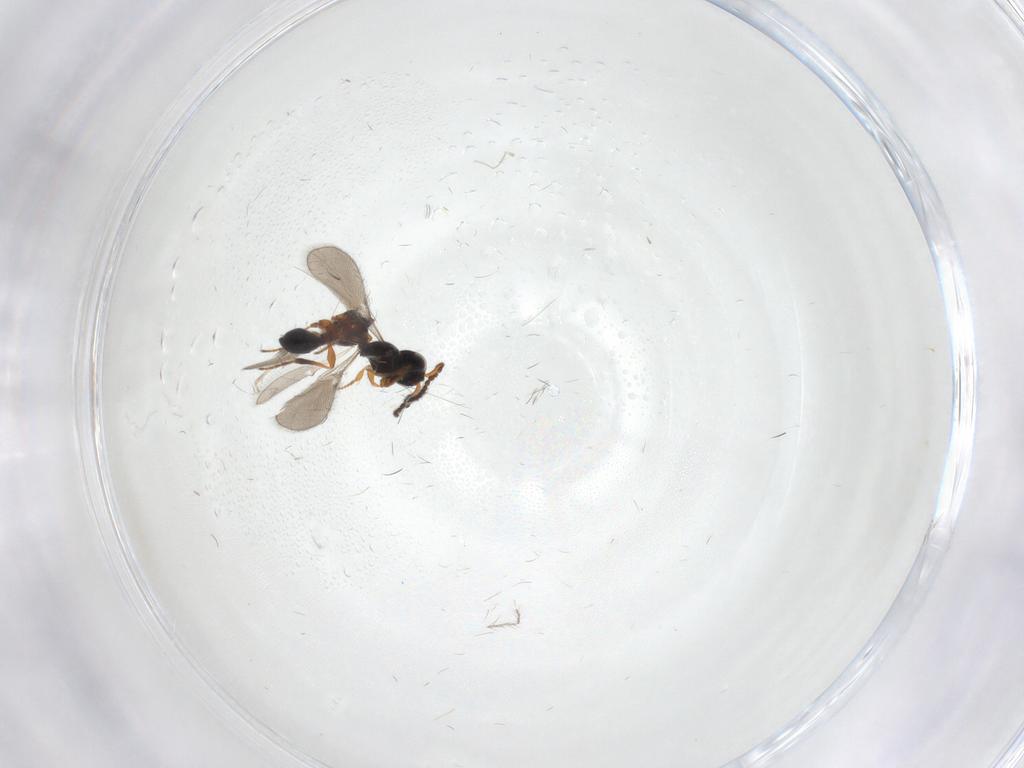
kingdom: Animalia
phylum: Arthropoda
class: Insecta
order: Hymenoptera
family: Platygastridae
